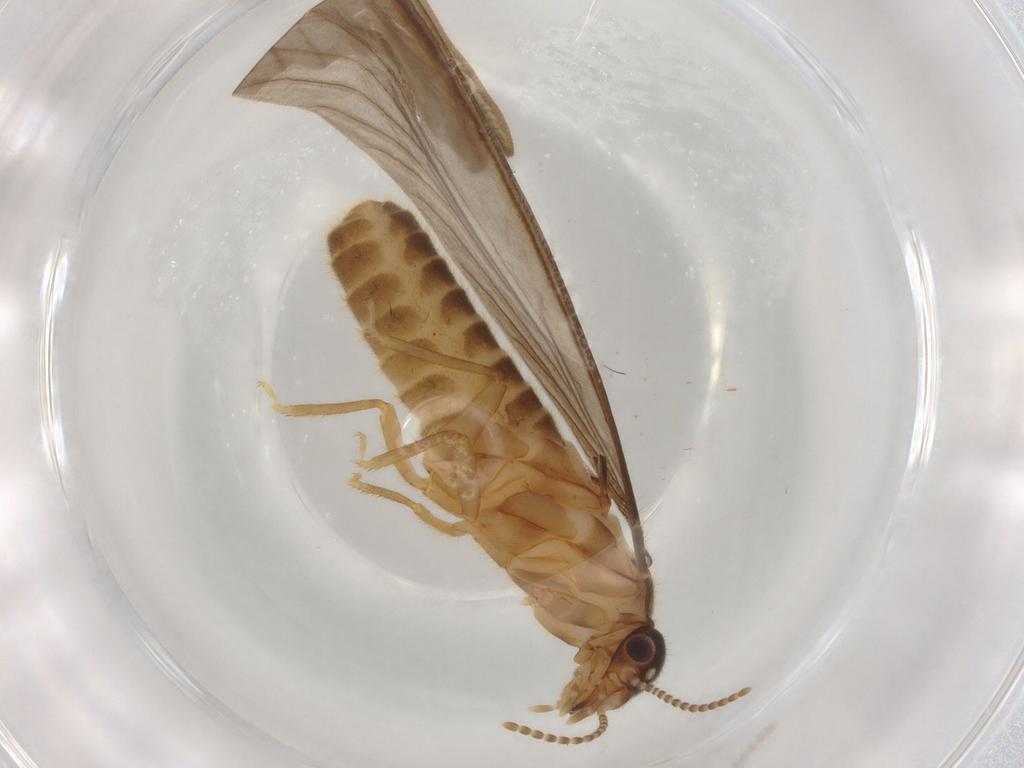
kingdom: Animalia
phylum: Arthropoda
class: Insecta
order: Blattodea
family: Termitidae
